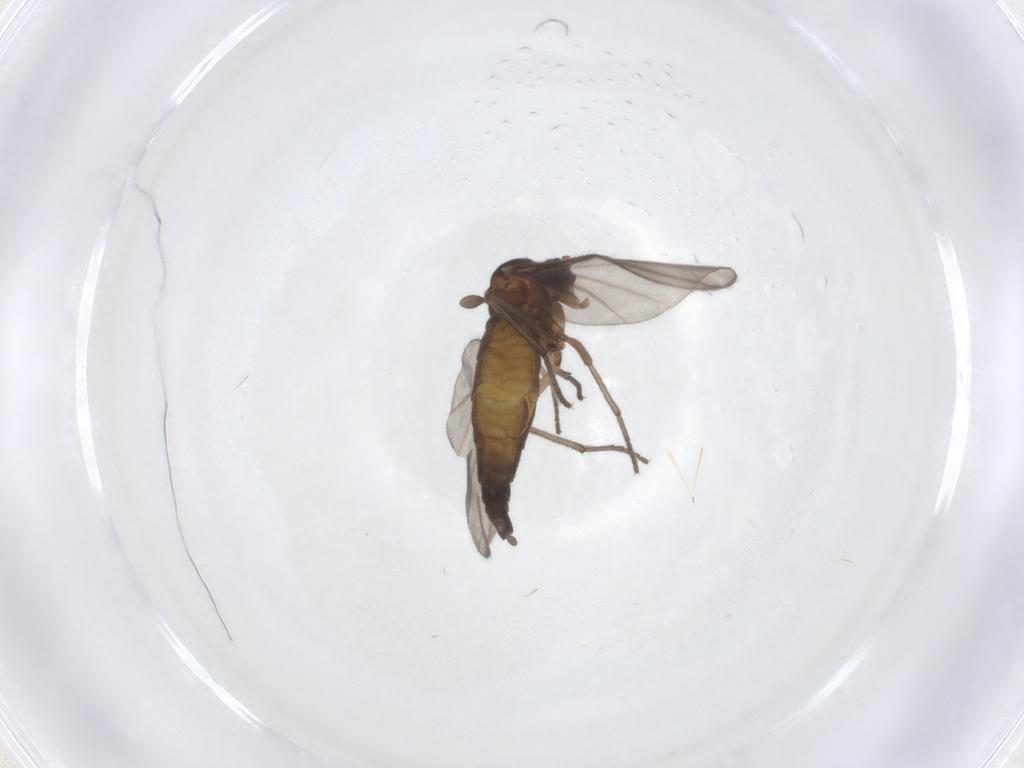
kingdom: Animalia
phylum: Arthropoda
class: Insecta
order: Diptera
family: Sciaridae
